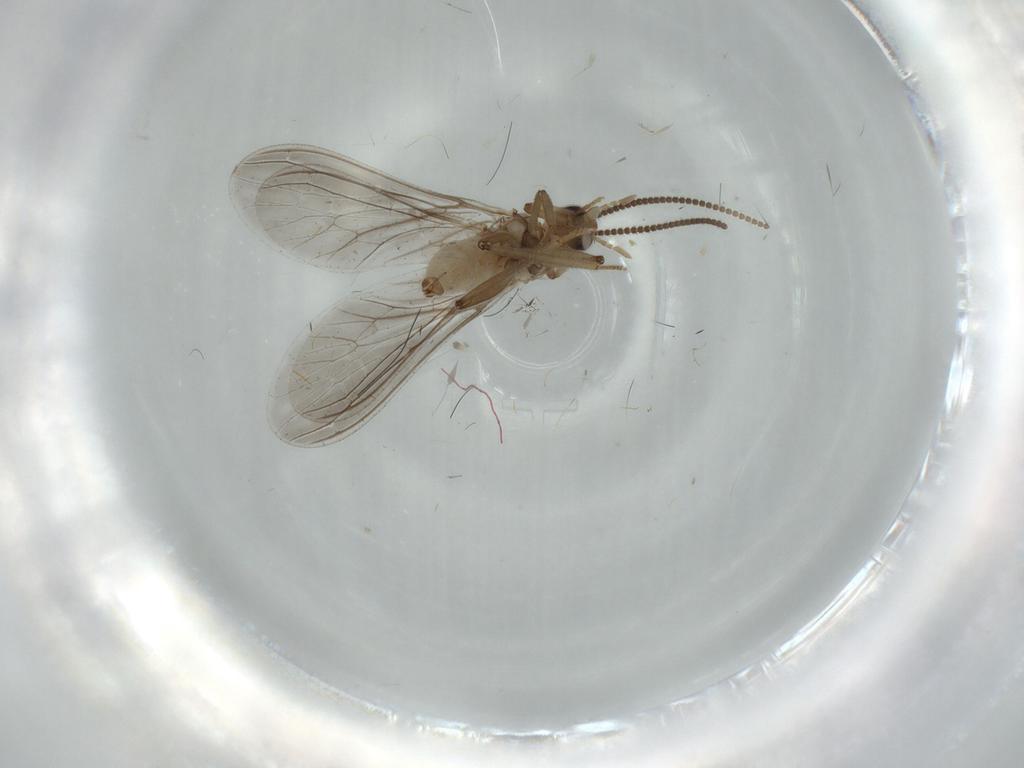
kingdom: Animalia
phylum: Arthropoda
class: Insecta
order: Neuroptera
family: Coniopterygidae
